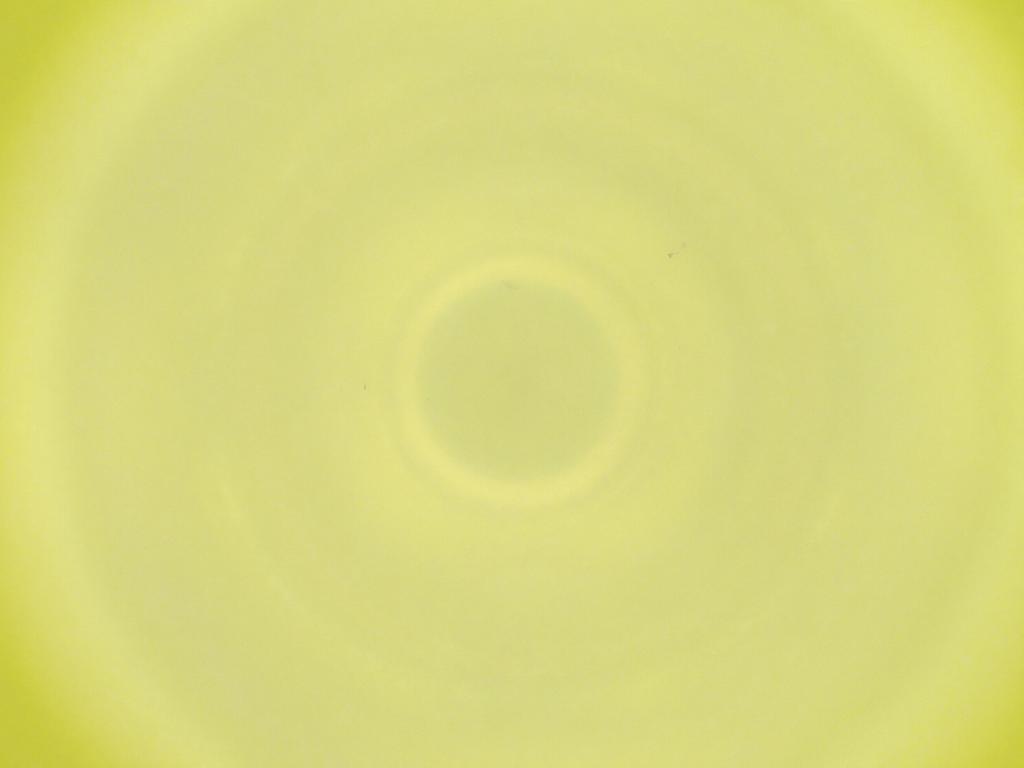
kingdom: Animalia
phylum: Arthropoda
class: Insecta
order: Diptera
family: Cecidomyiidae
